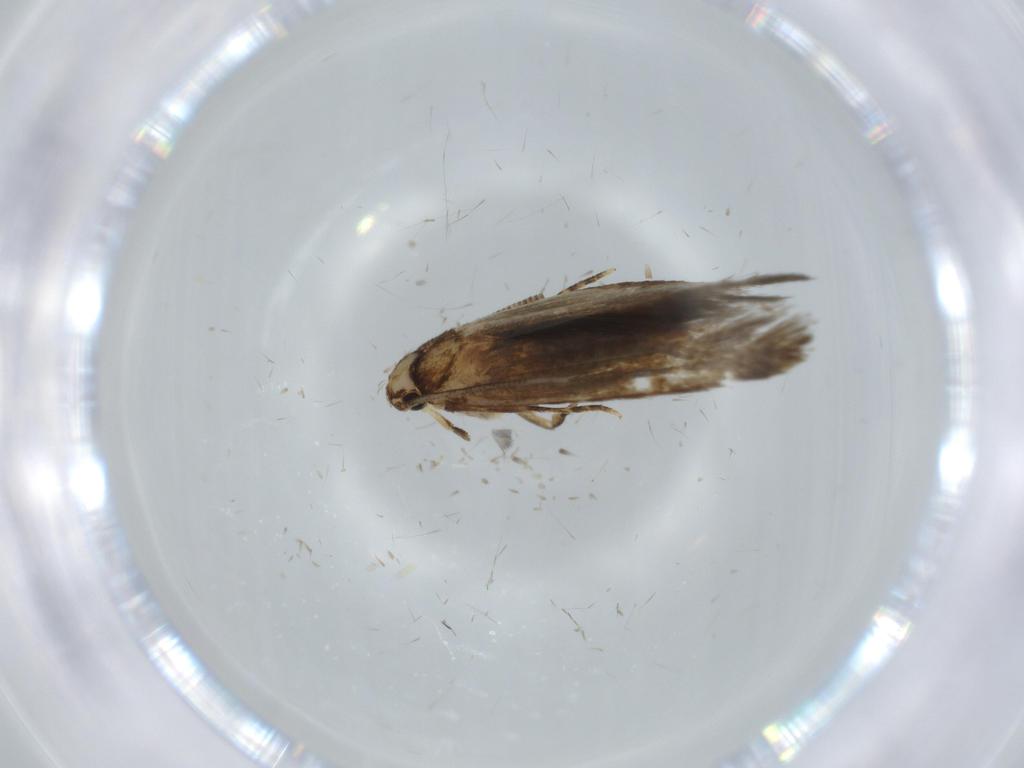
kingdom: Animalia
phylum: Arthropoda
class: Insecta
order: Lepidoptera
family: Tineidae
